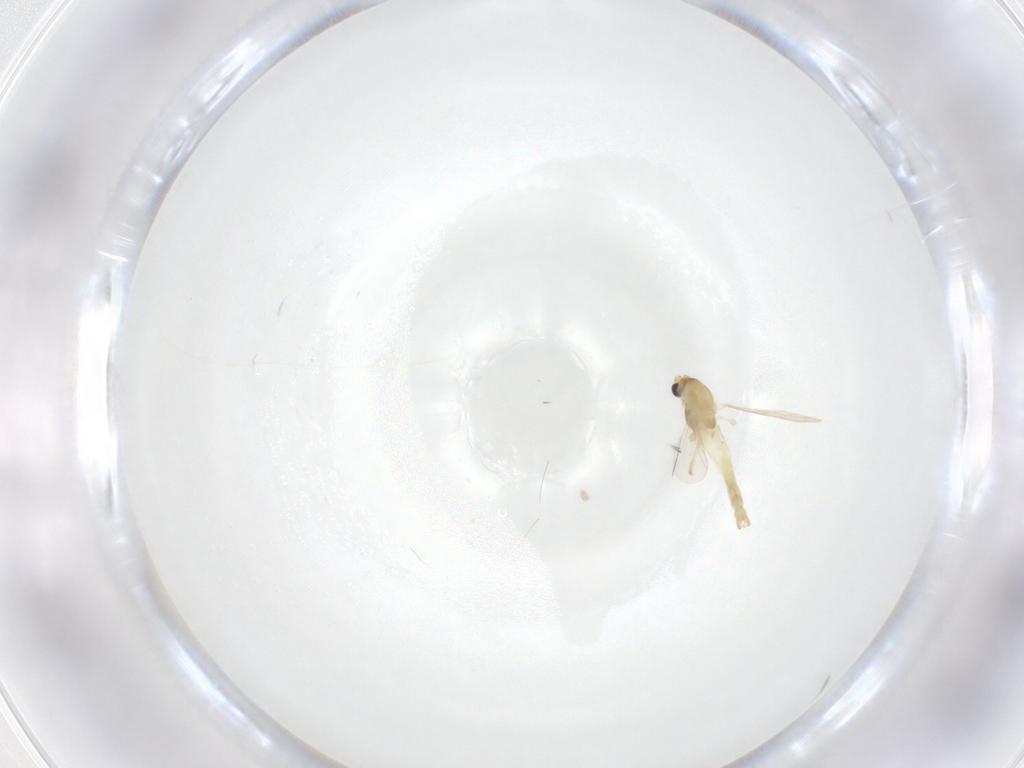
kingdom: Animalia
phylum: Arthropoda
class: Insecta
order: Diptera
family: Chironomidae
